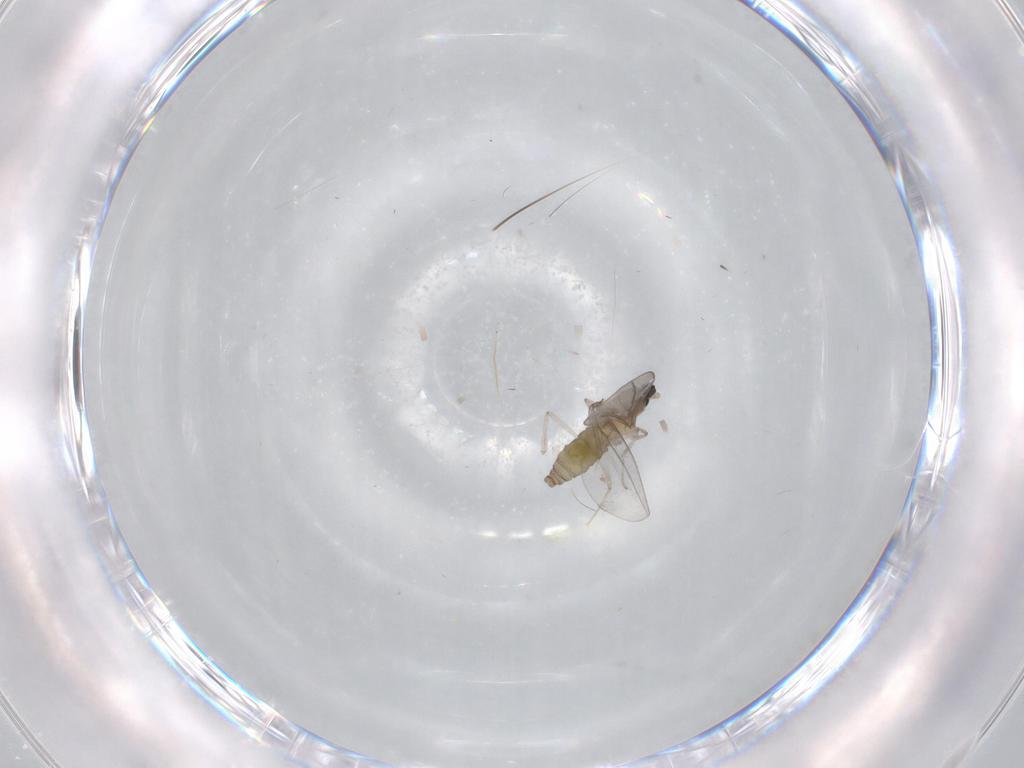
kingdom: Animalia
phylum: Arthropoda
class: Insecta
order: Diptera
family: Cecidomyiidae
